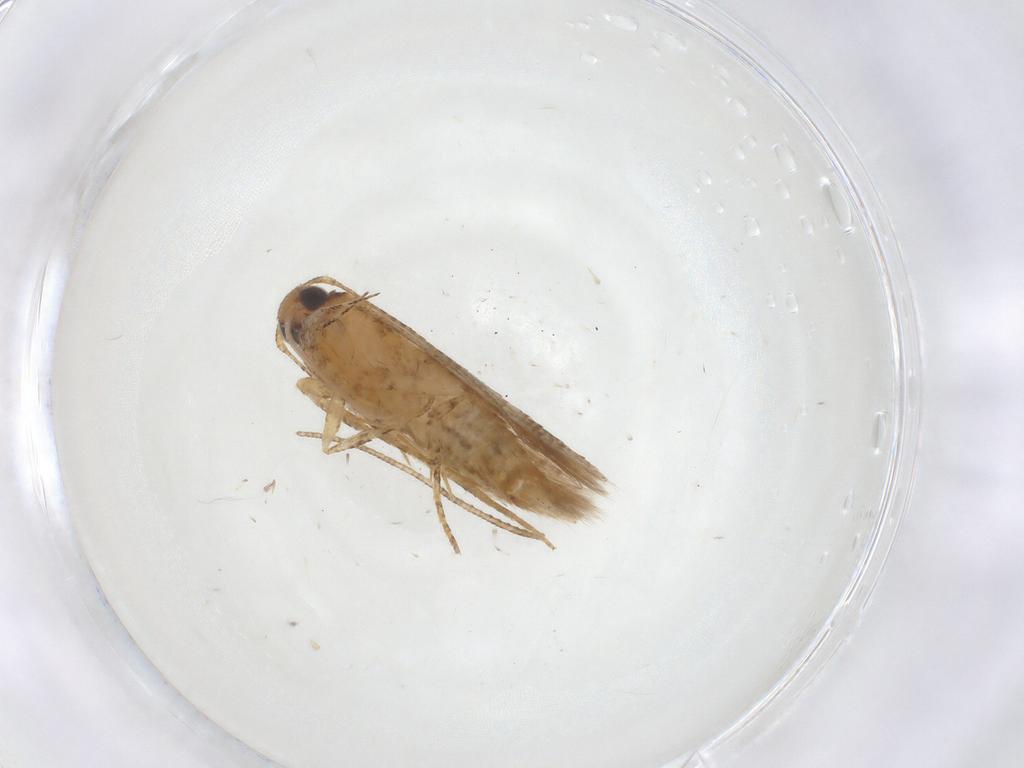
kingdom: Animalia
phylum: Arthropoda
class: Insecta
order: Lepidoptera
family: Gelechiidae
